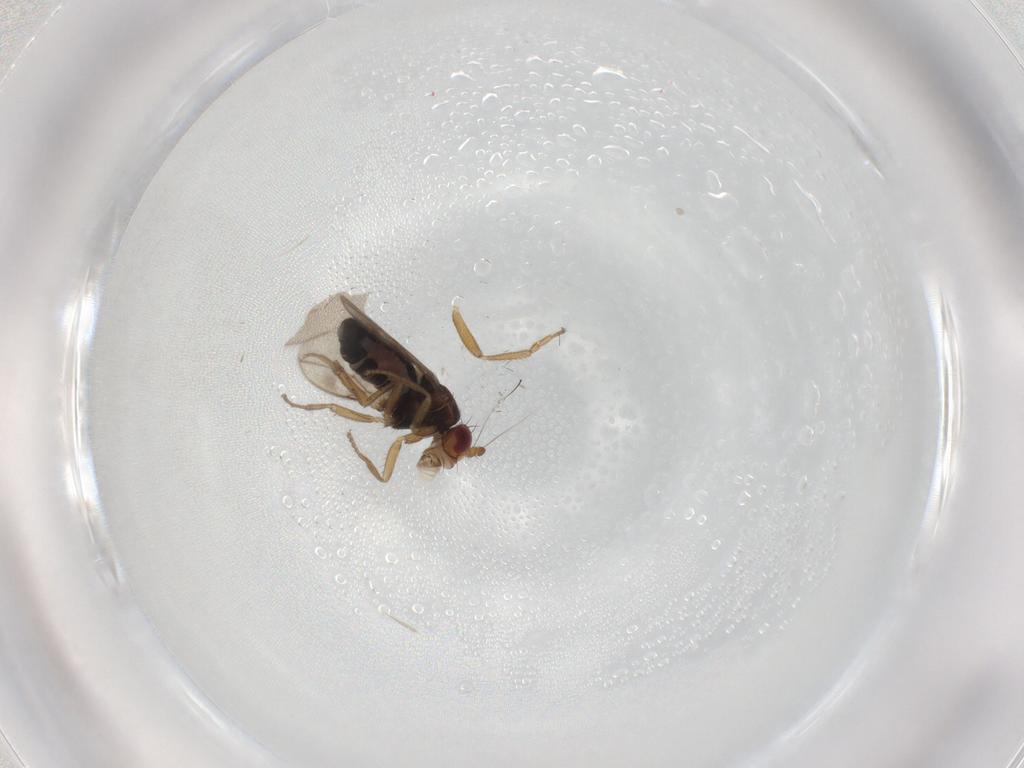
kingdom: Animalia
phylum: Arthropoda
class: Insecta
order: Diptera
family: Sphaeroceridae
